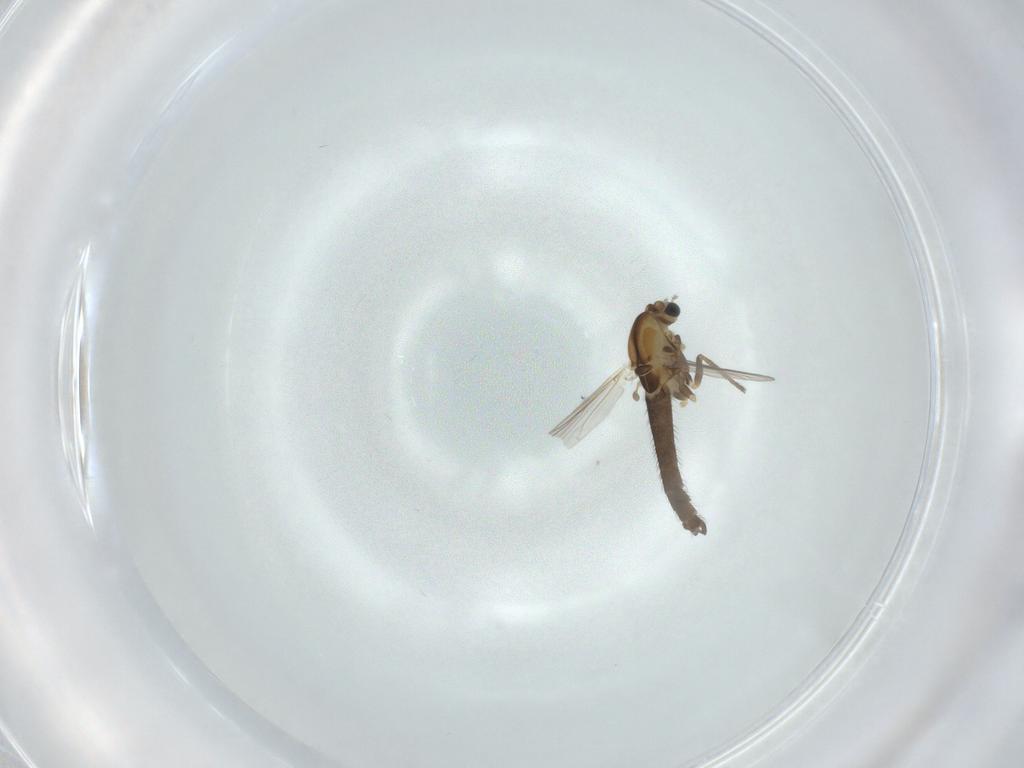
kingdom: Animalia
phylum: Arthropoda
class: Insecta
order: Diptera
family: Chironomidae
